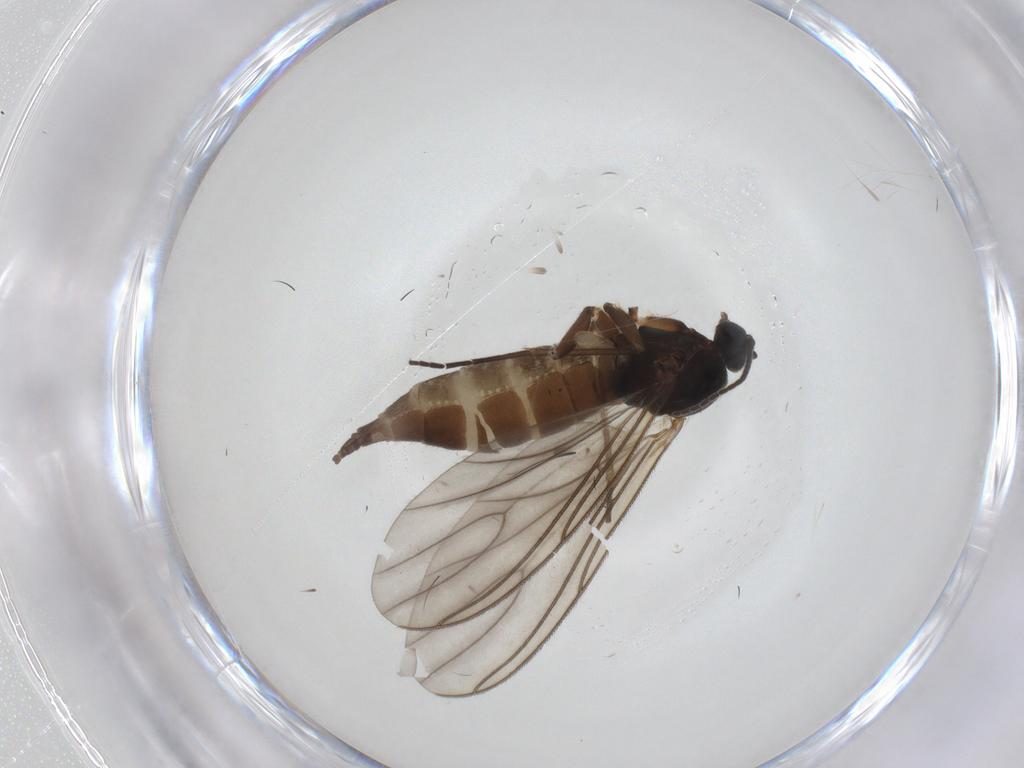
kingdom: Animalia
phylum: Arthropoda
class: Insecta
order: Diptera
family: Sciaridae
